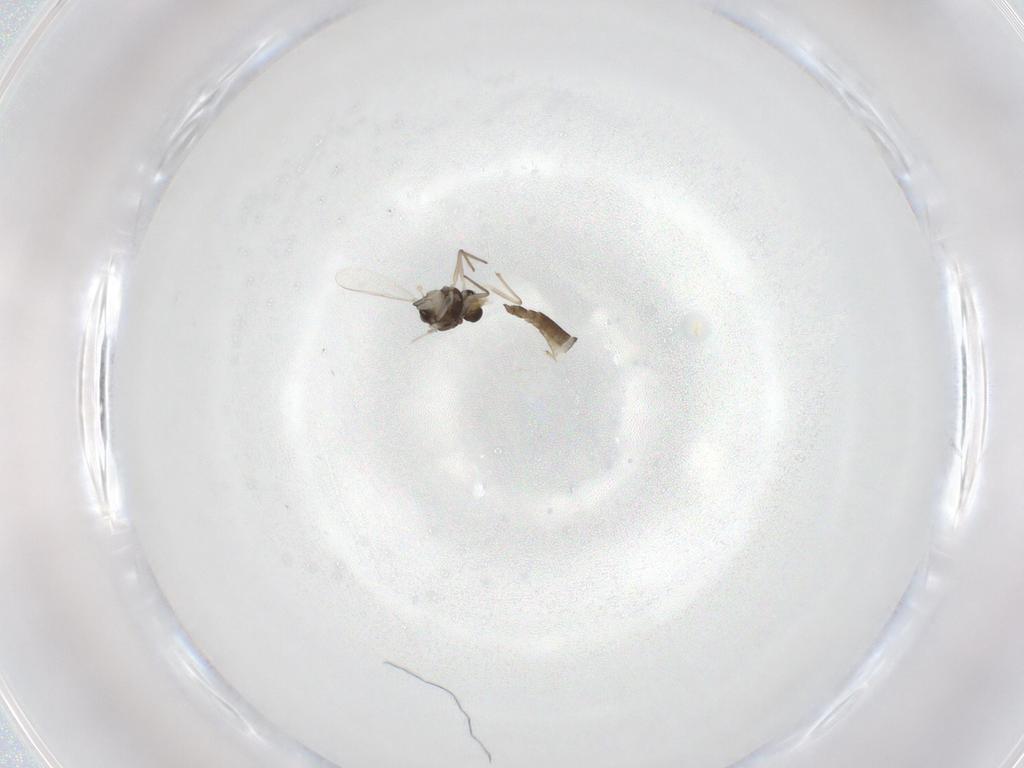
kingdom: Animalia
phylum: Arthropoda
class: Insecta
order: Diptera
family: Chironomidae
